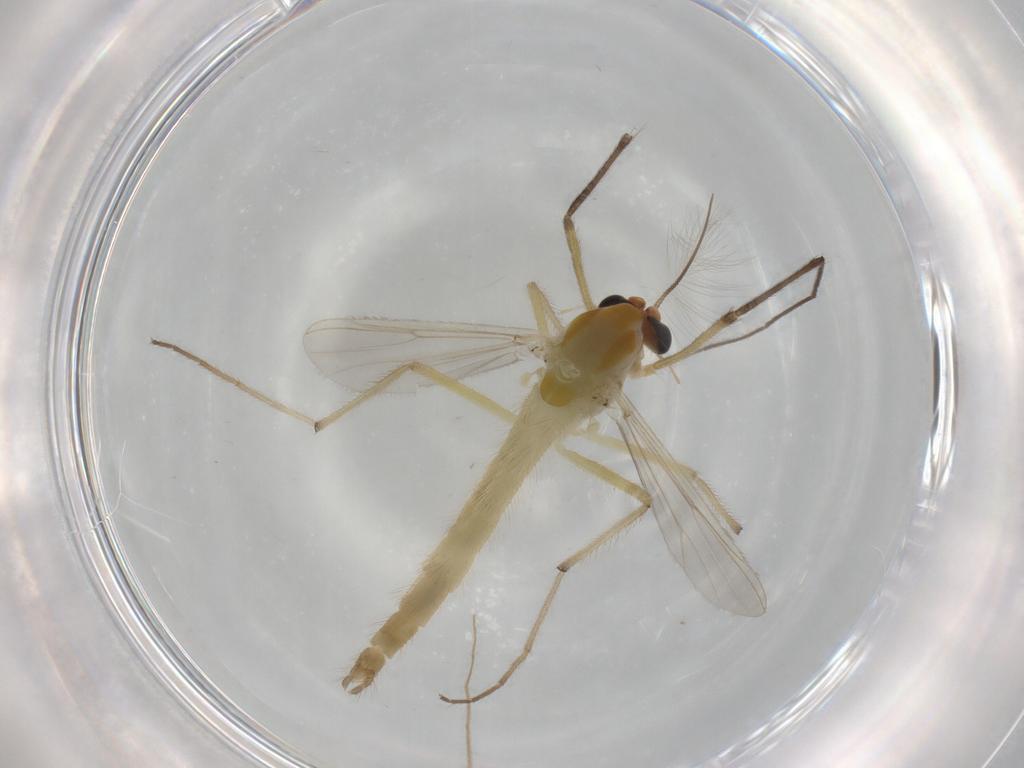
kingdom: Animalia
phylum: Arthropoda
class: Insecta
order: Diptera
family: Chironomidae
